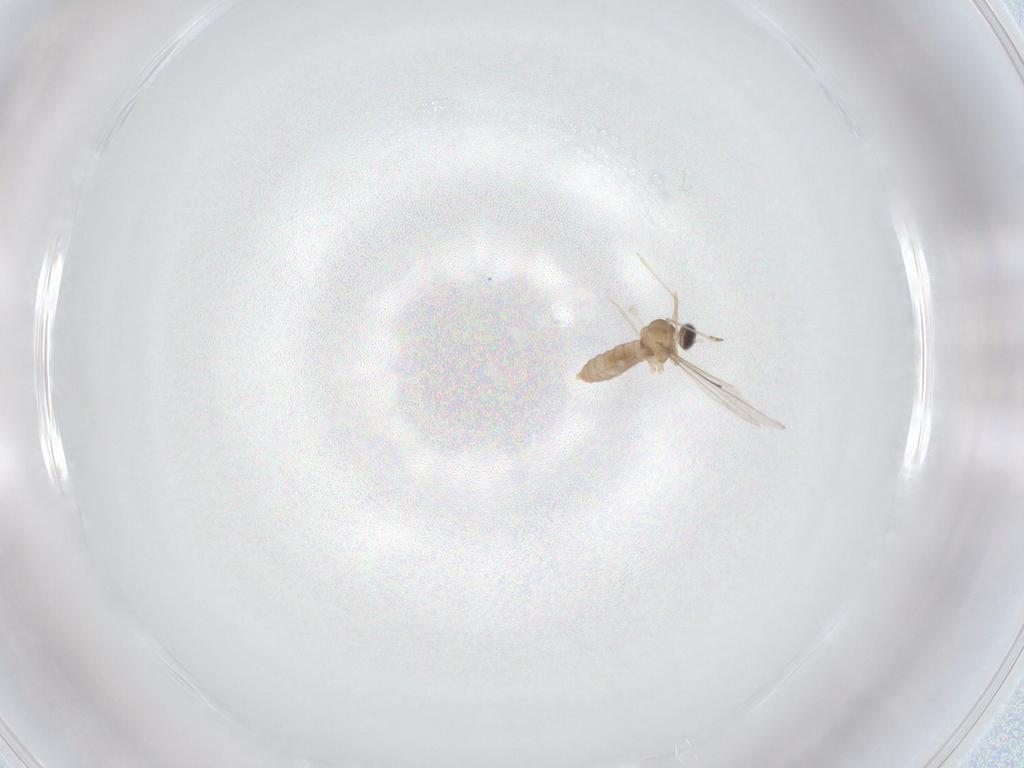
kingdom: Animalia
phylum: Arthropoda
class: Insecta
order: Diptera
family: Cecidomyiidae
